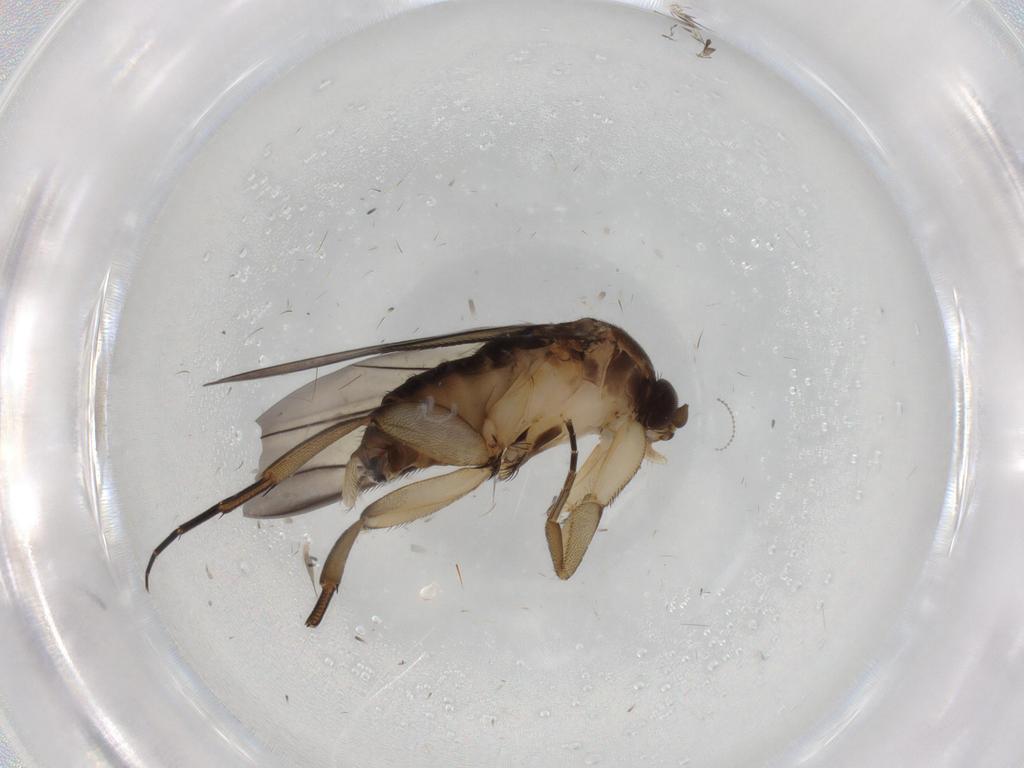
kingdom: Animalia
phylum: Arthropoda
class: Insecta
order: Diptera
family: Phoridae
